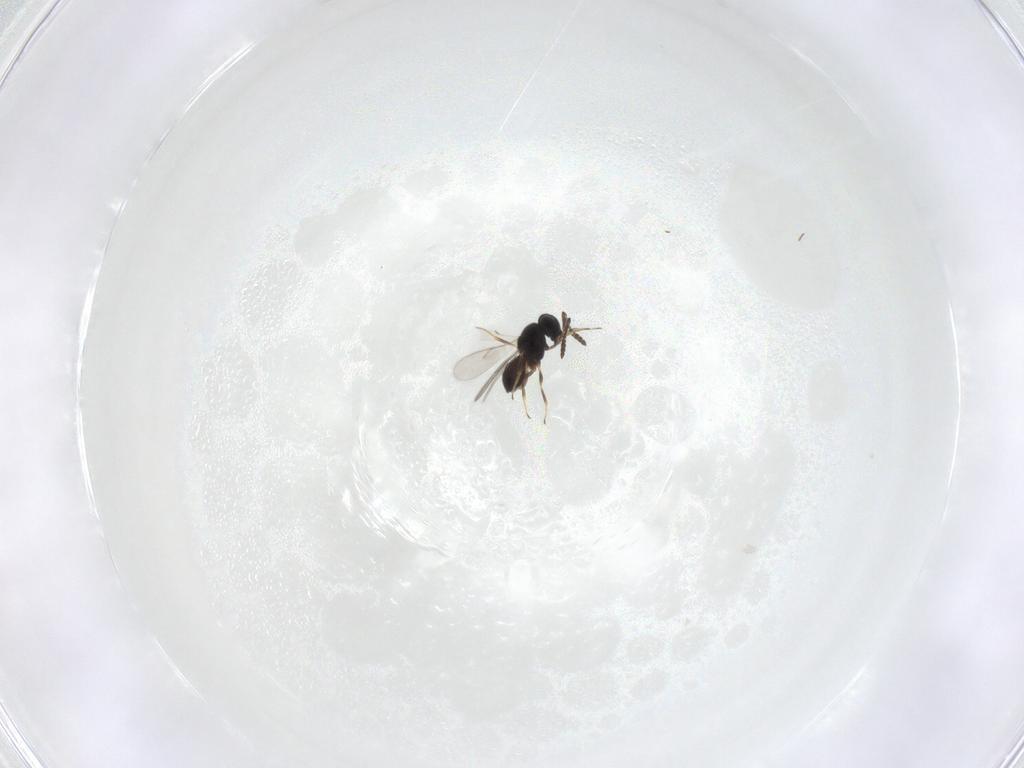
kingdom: Animalia
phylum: Arthropoda
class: Insecta
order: Hymenoptera
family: Scelionidae
